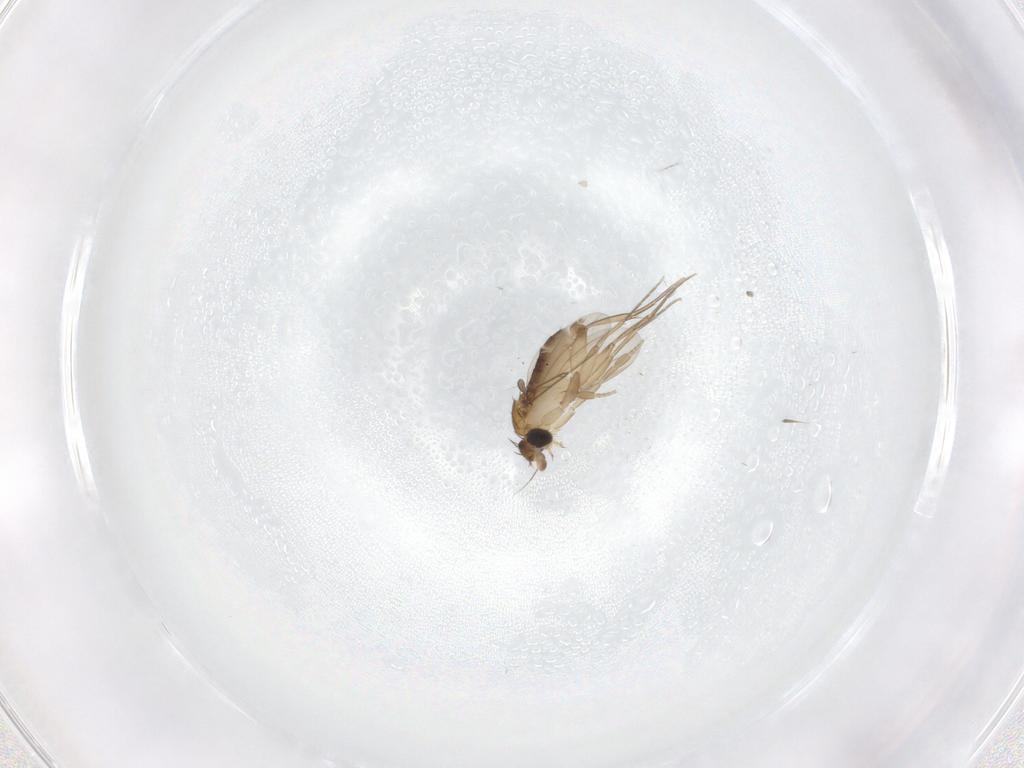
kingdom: Animalia
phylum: Arthropoda
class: Insecta
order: Diptera
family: Phoridae
